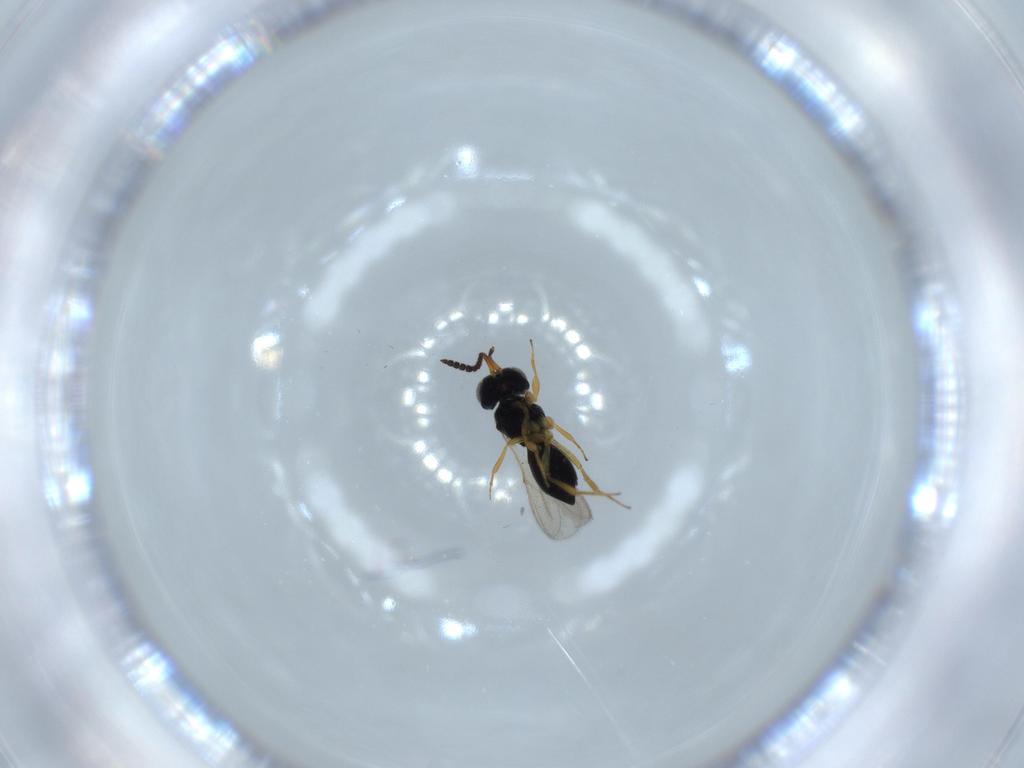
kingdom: Animalia
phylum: Arthropoda
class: Insecta
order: Hymenoptera
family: Scelionidae
